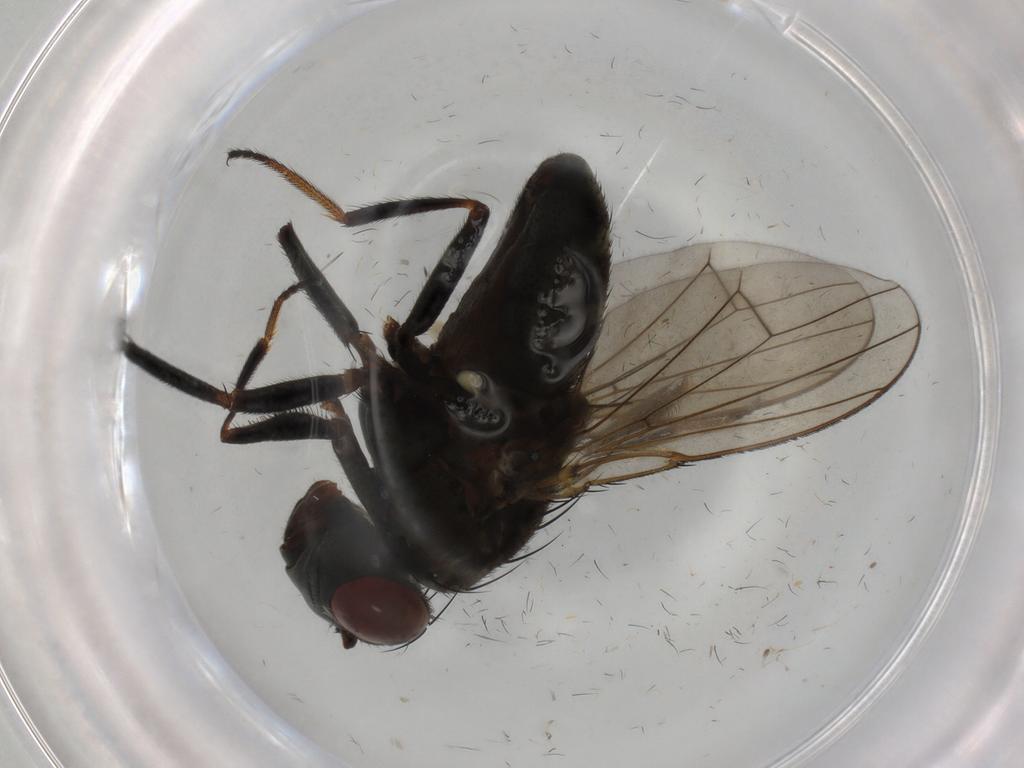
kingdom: Animalia
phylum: Arthropoda
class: Insecta
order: Diptera
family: Ephydridae
